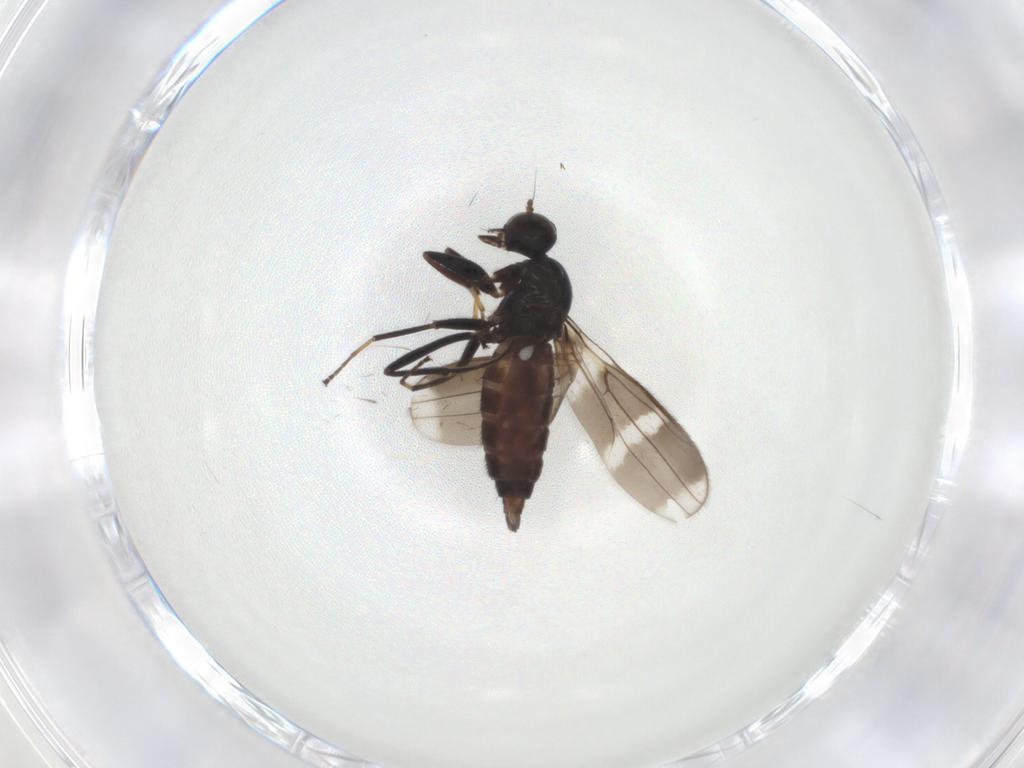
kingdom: Animalia
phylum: Arthropoda
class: Insecta
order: Diptera
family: Hybotidae
